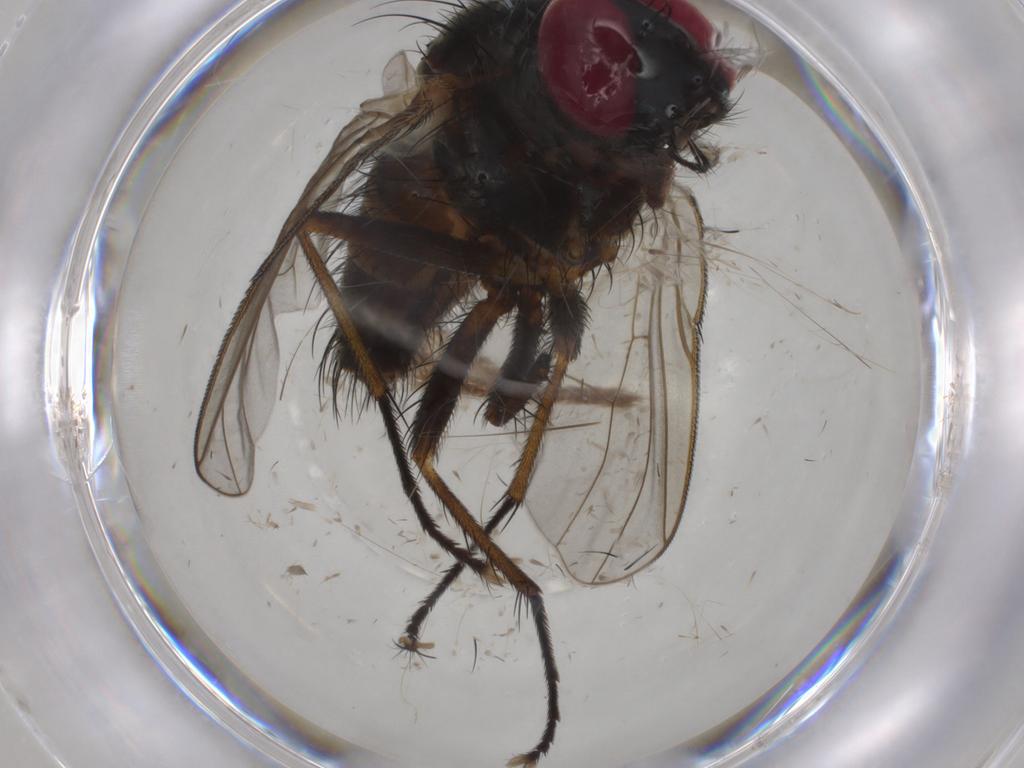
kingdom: Animalia
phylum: Arthropoda
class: Insecta
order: Diptera
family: Muscidae
